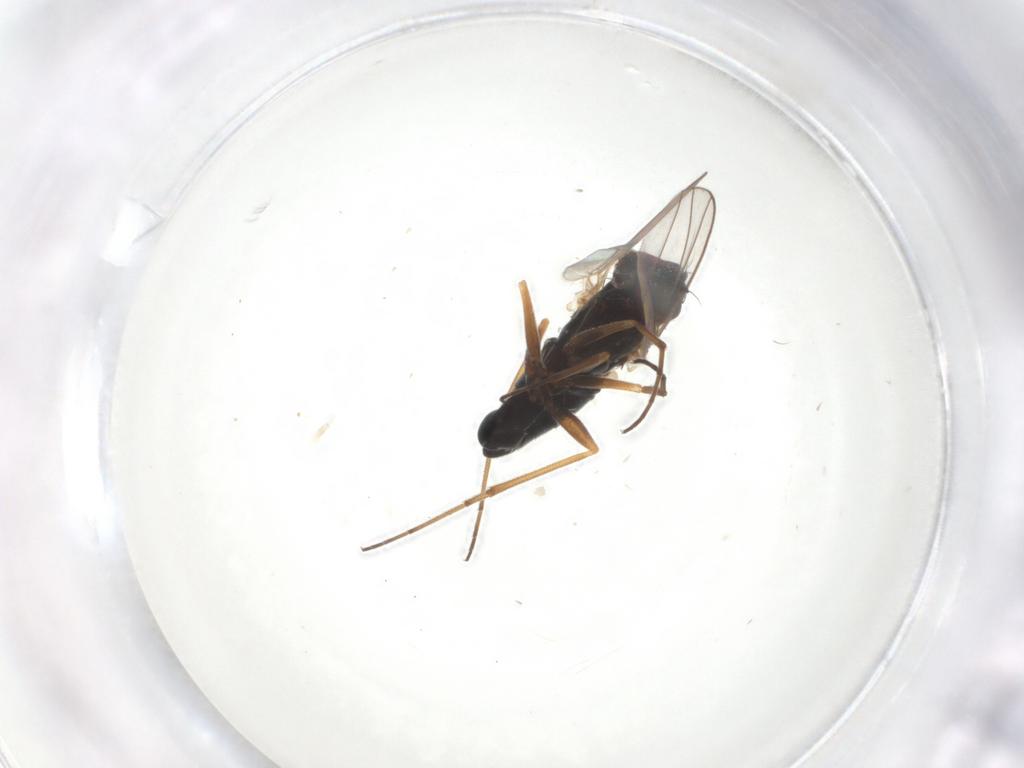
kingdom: Animalia
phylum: Arthropoda
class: Insecta
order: Diptera
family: Dolichopodidae
